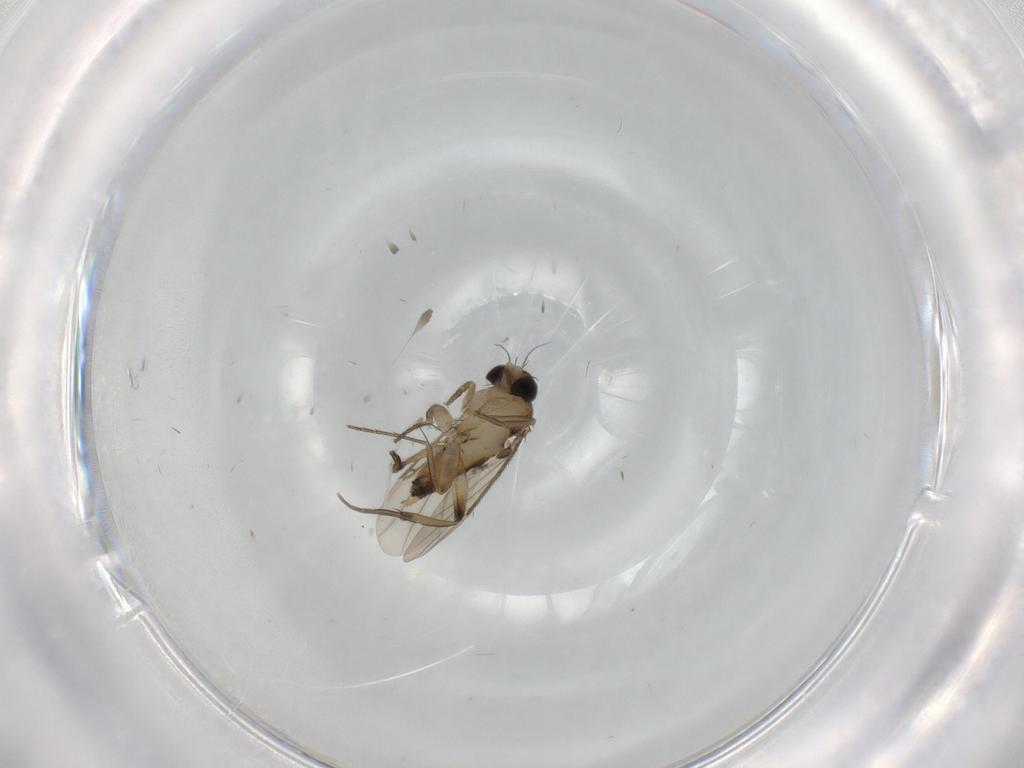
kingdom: Animalia
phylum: Arthropoda
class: Insecta
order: Diptera
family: Phoridae
